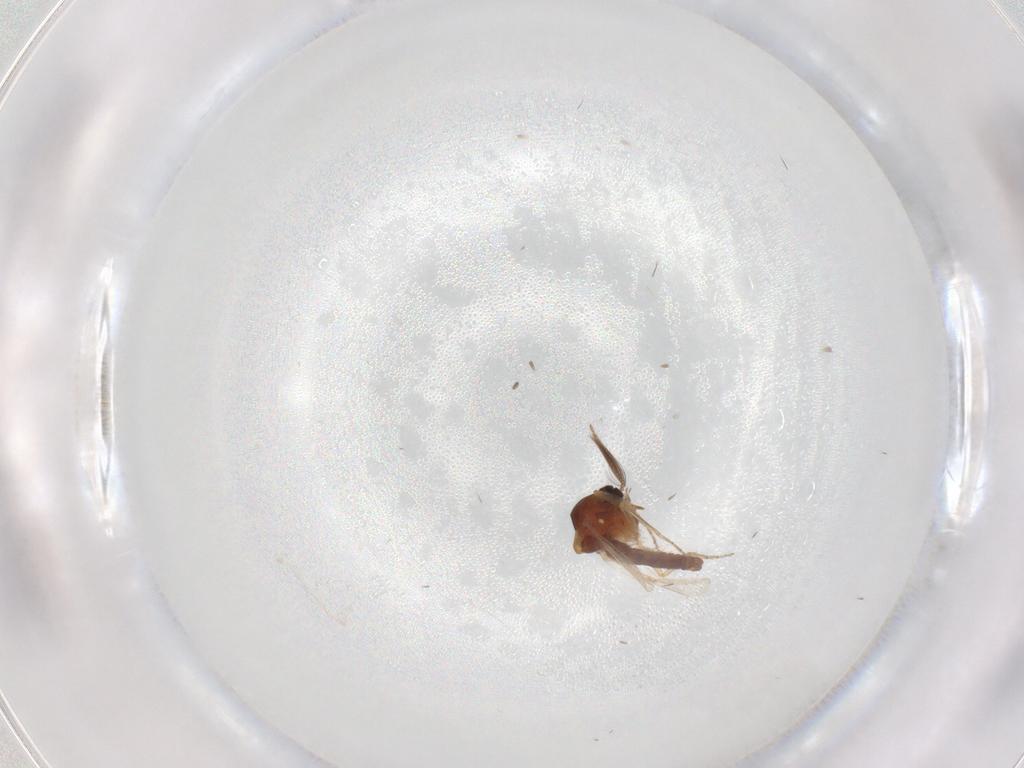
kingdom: Animalia
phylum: Arthropoda
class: Insecta
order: Diptera
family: Ceratopogonidae
